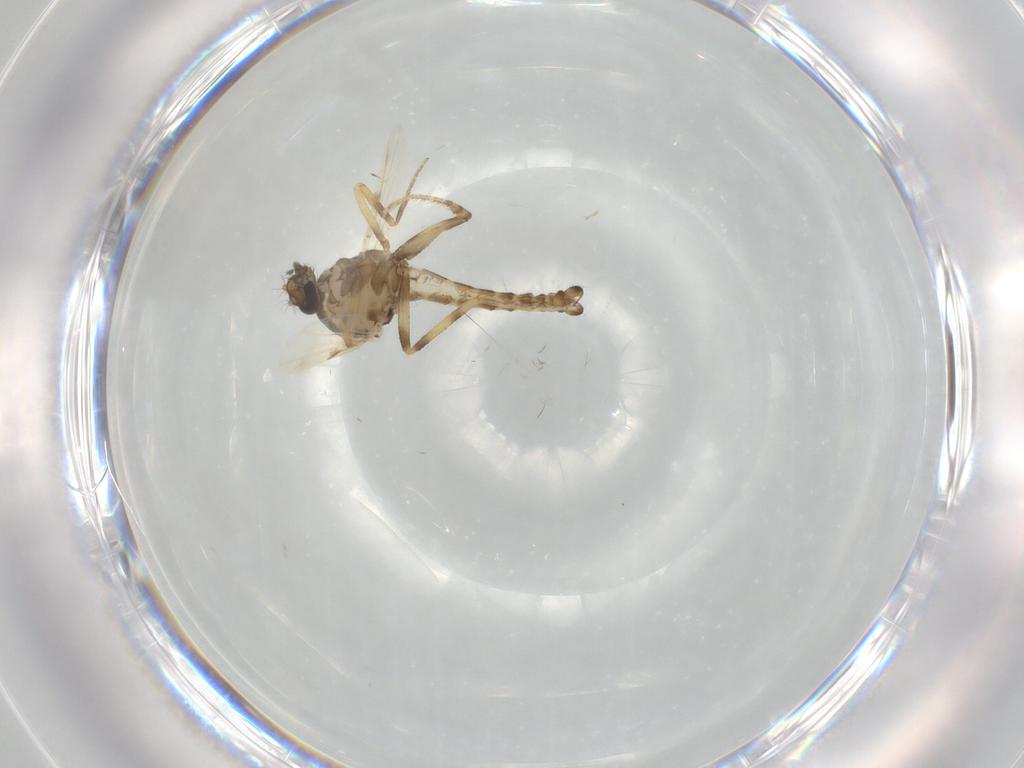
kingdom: Animalia
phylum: Arthropoda
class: Insecta
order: Diptera
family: Ceratopogonidae
